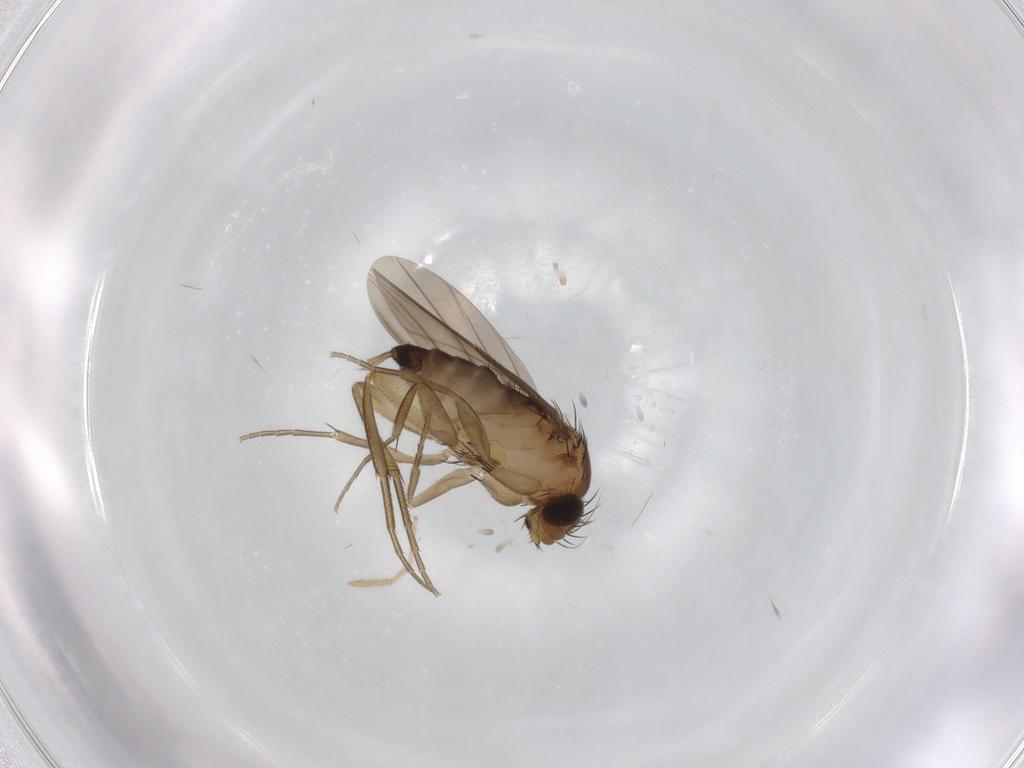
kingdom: Animalia
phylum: Arthropoda
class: Insecta
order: Diptera
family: Phoridae
